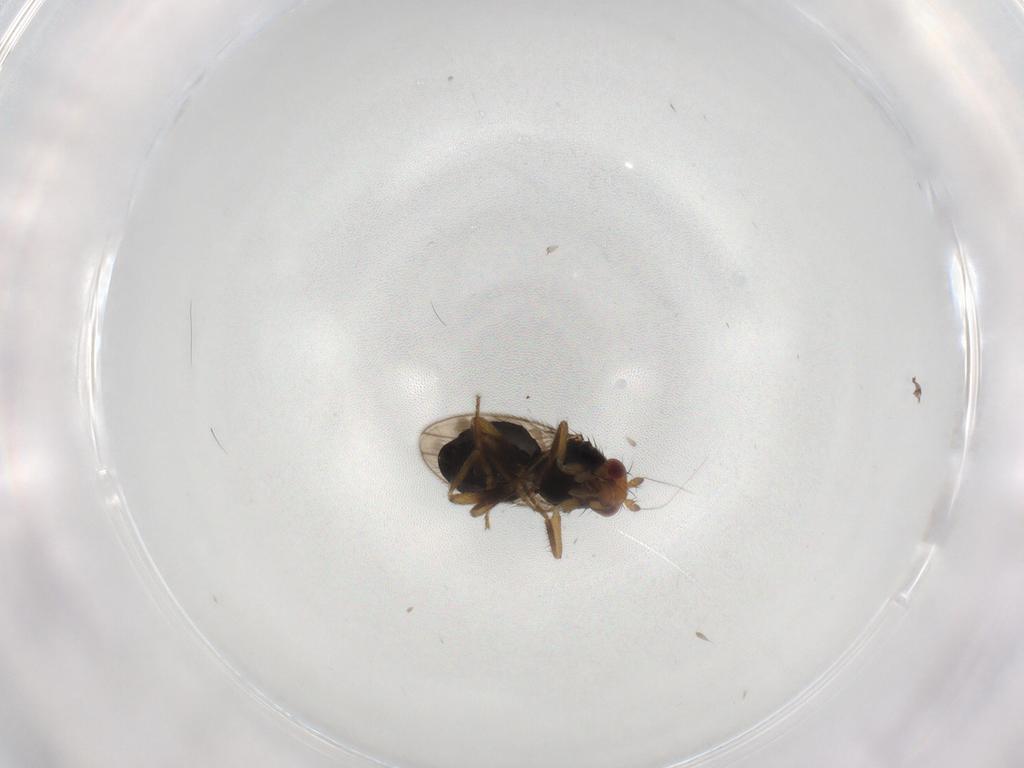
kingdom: Animalia
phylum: Arthropoda
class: Insecta
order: Diptera
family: Sphaeroceridae
